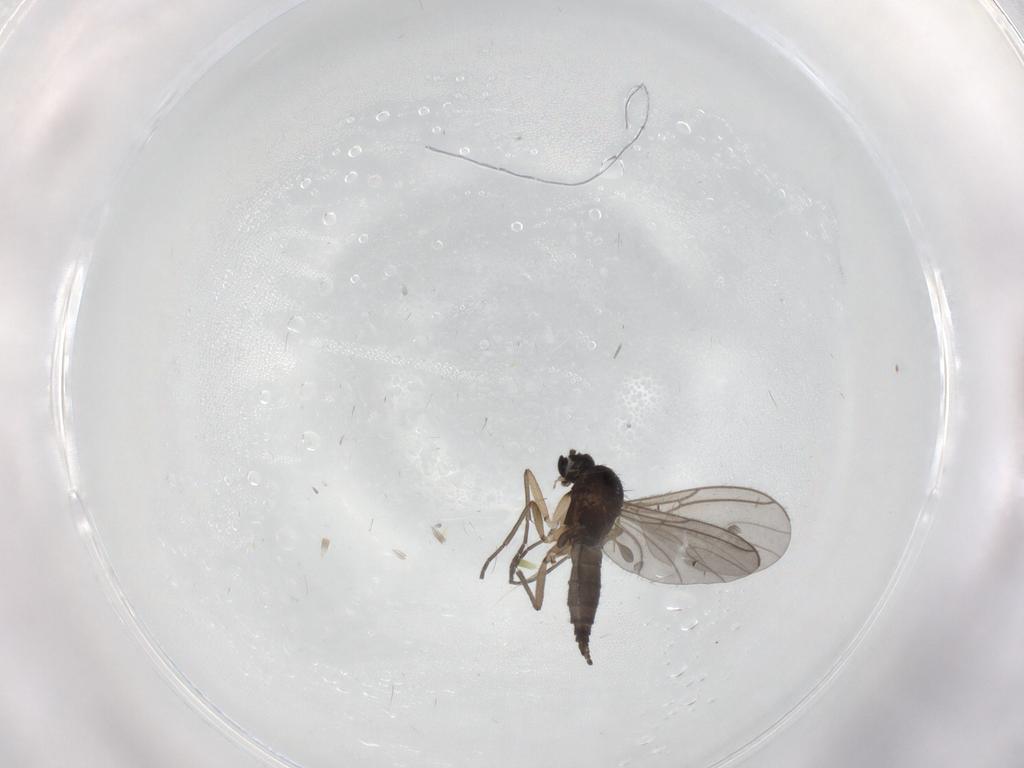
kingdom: Animalia
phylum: Arthropoda
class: Insecta
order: Diptera
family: Sciaridae
